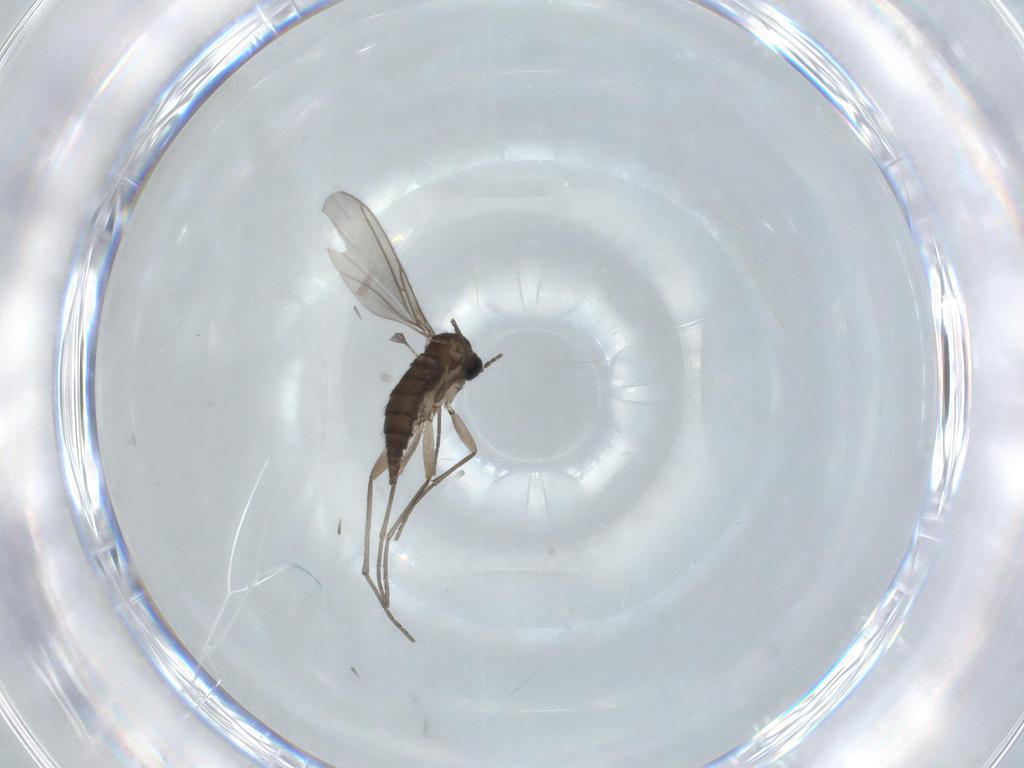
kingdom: Animalia
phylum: Arthropoda
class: Insecta
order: Diptera
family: Sciaridae
